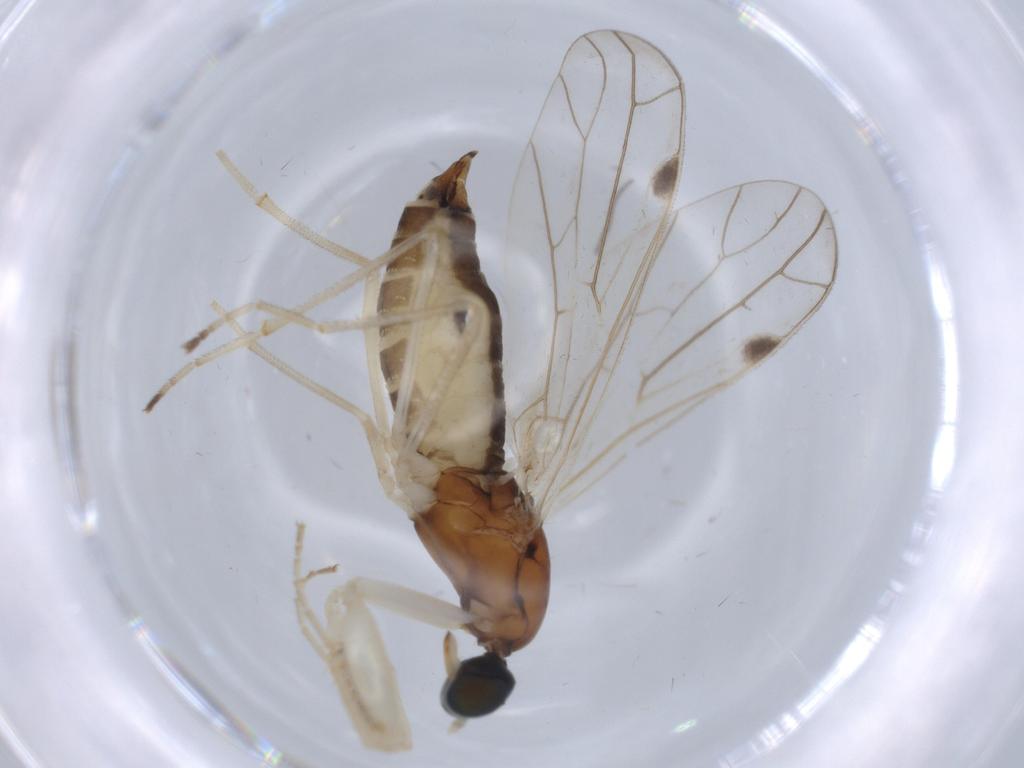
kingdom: Animalia
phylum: Arthropoda
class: Insecta
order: Diptera
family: Empididae
